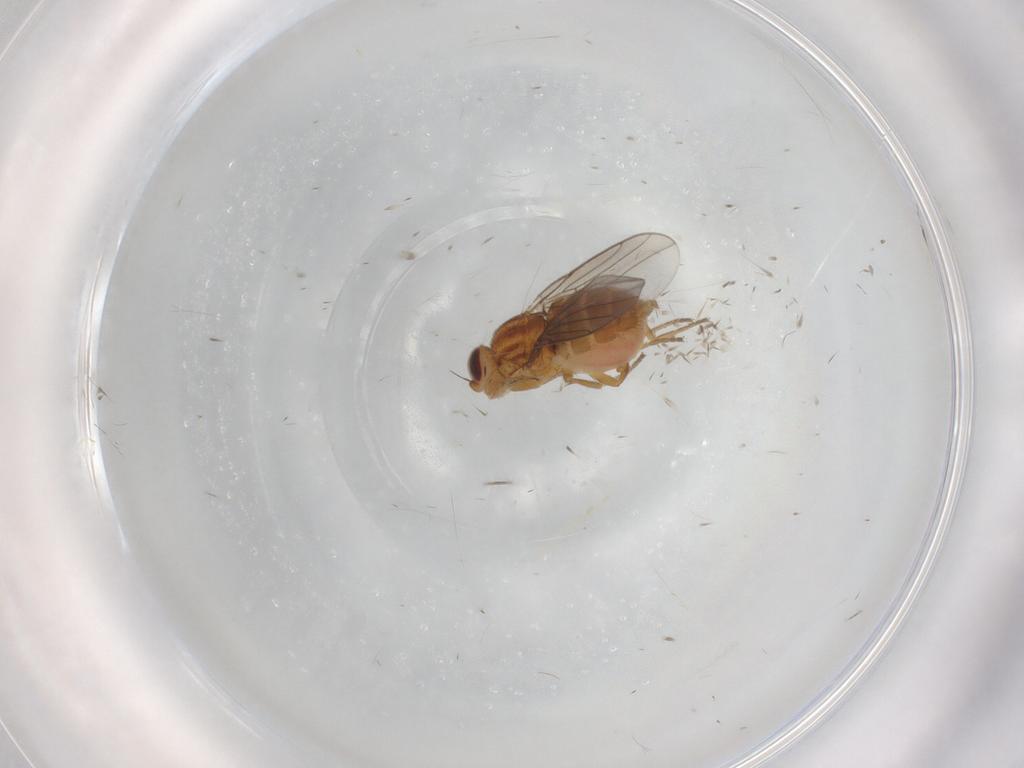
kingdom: Animalia
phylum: Arthropoda
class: Insecta
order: Diptera
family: Chloropidae
